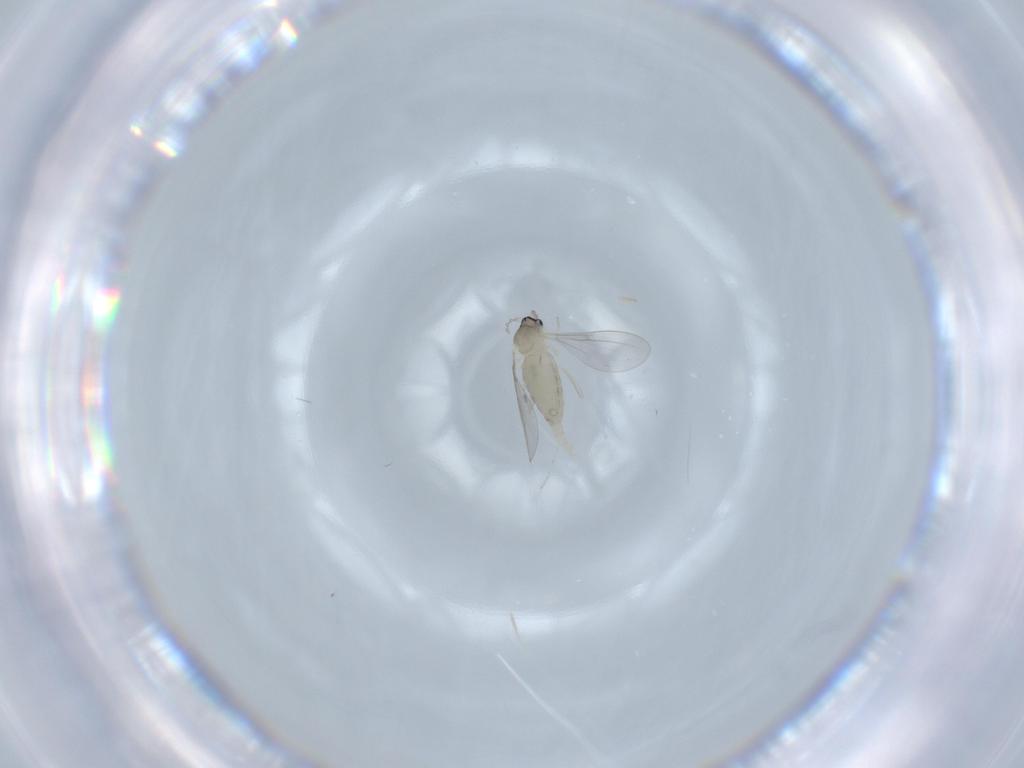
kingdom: Animalia
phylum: Arthropoda
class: Insecta
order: Diptera
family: Cecidomyiidae
